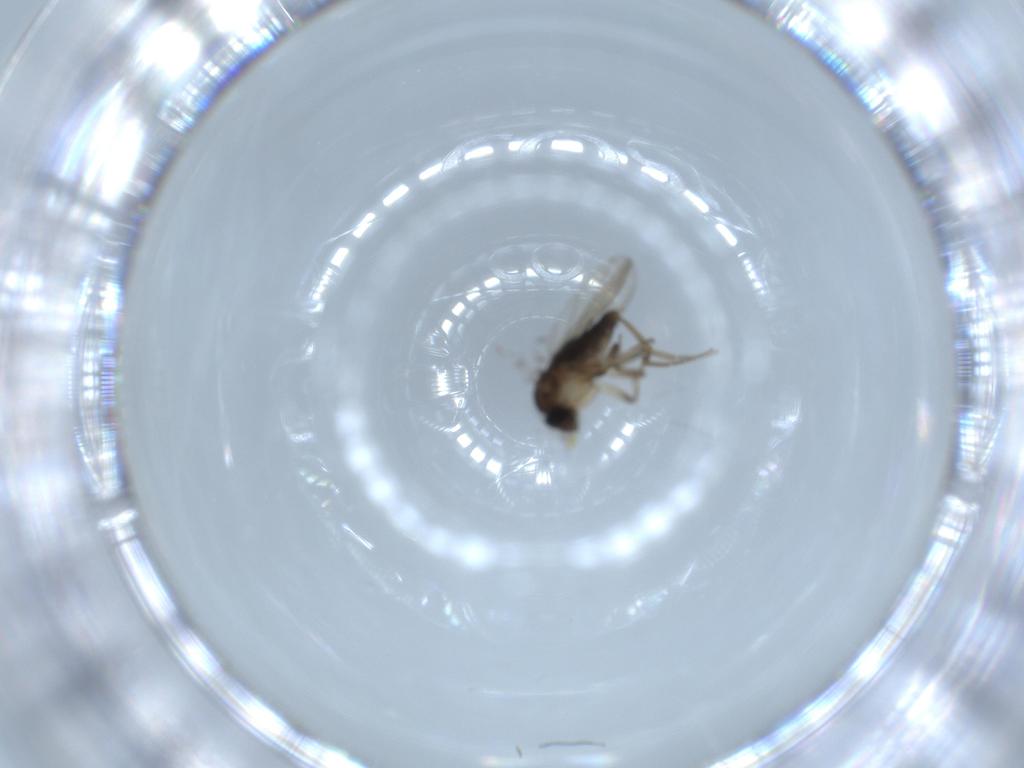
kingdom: Animalia
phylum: Arthropoda
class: Insecta
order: Diptera
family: Phoridae
